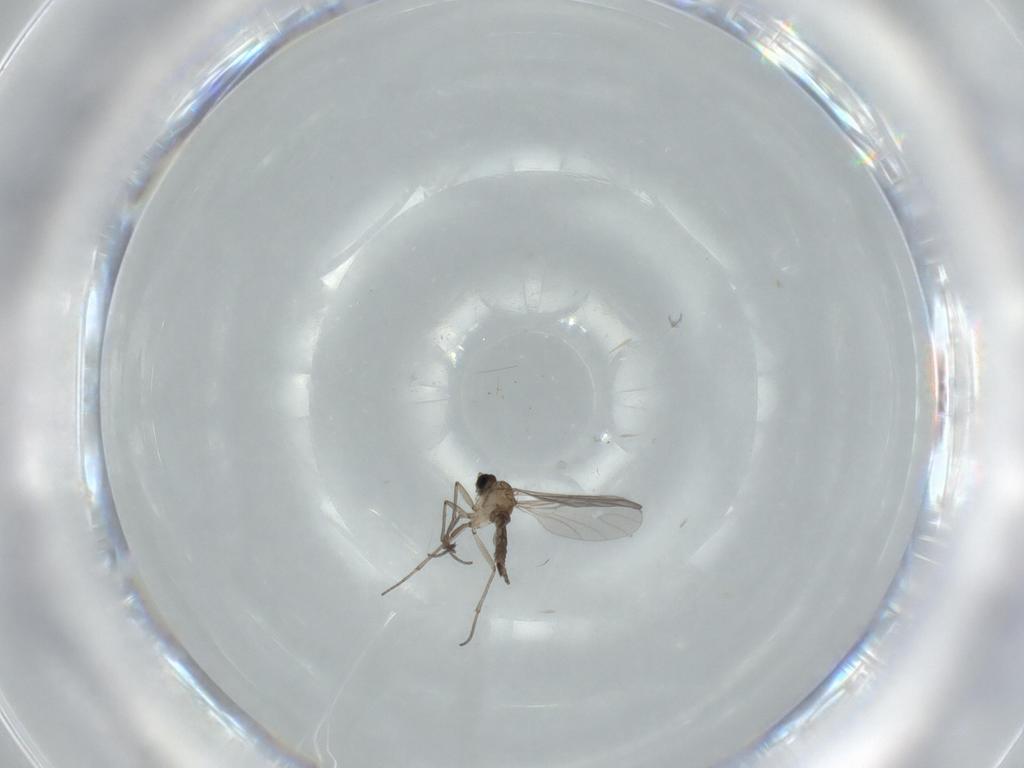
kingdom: Animalia
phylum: Arthropoda
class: Insecta
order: Diptera
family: Sciaridae
